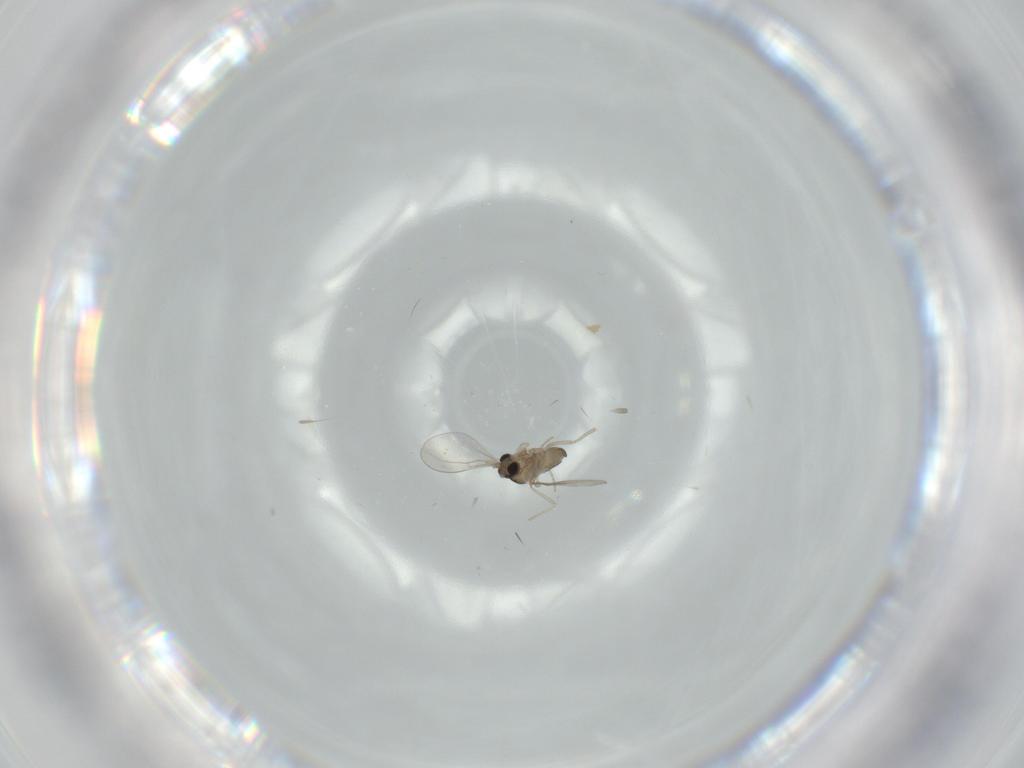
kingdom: Animalia
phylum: Arthropoda
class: Insecta
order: Diptera
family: Cecidomyiidae
